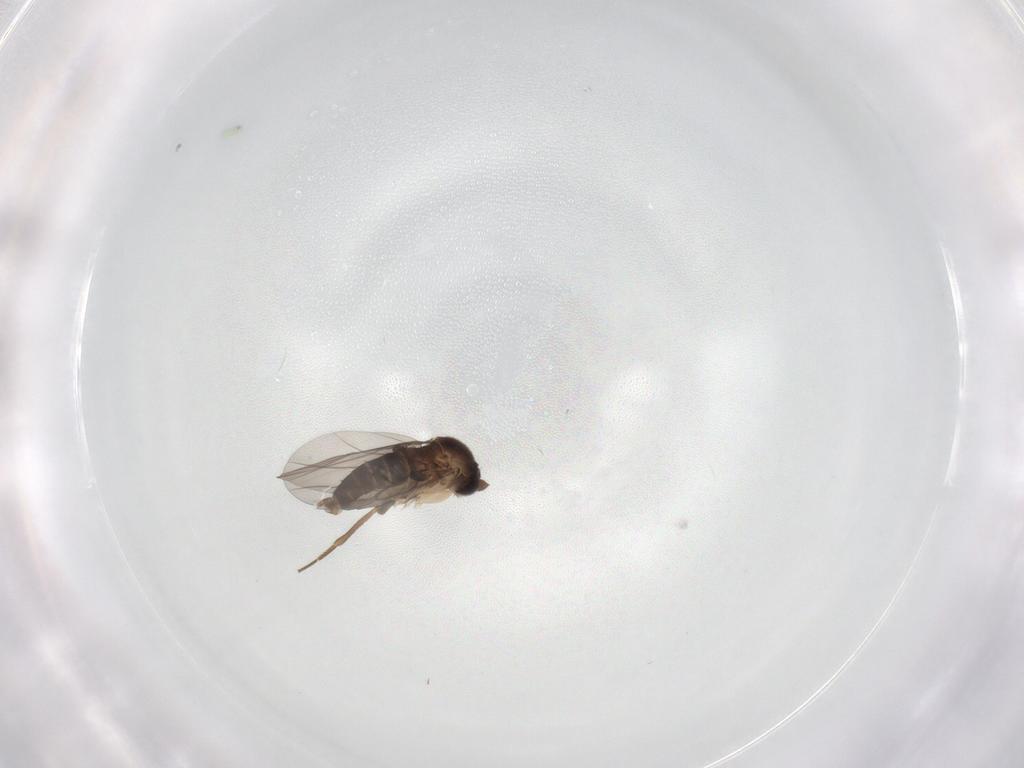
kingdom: Animalia
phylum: Arthropoda
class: Insecta
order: Diptera
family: Phoridae
